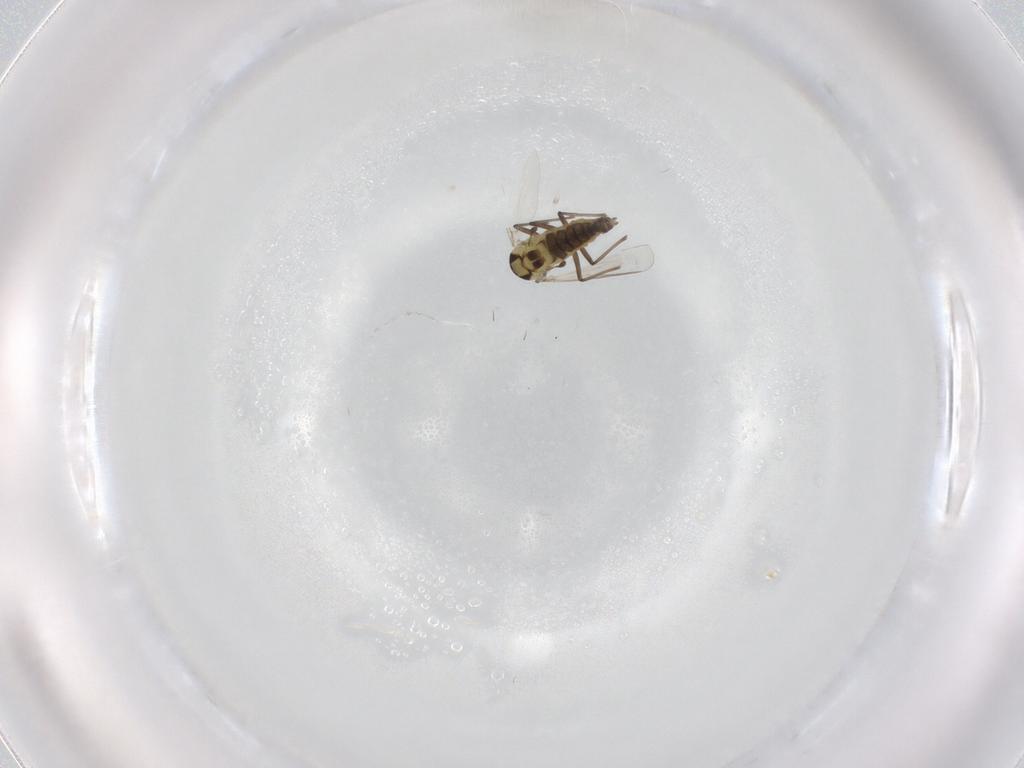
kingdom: Animalia
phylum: Arthropoda
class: Insecta
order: Diptera
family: Chironomidae
